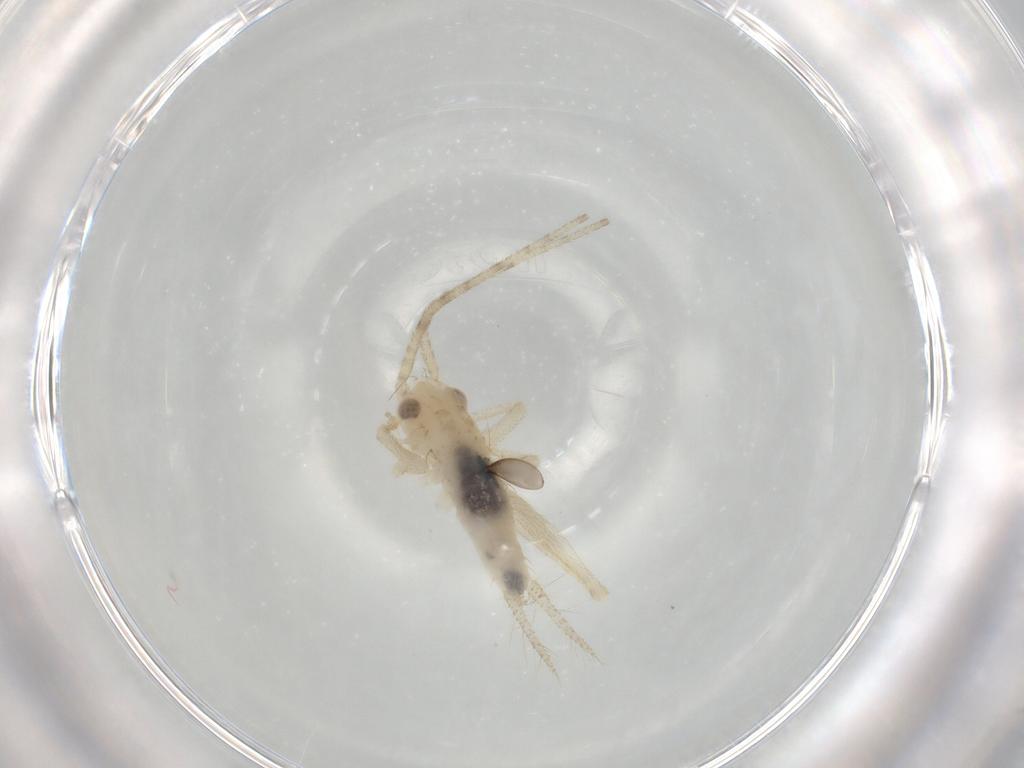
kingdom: Animalia
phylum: Arthropoda
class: Insecta
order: Orthoptera
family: Trigonidiidae
